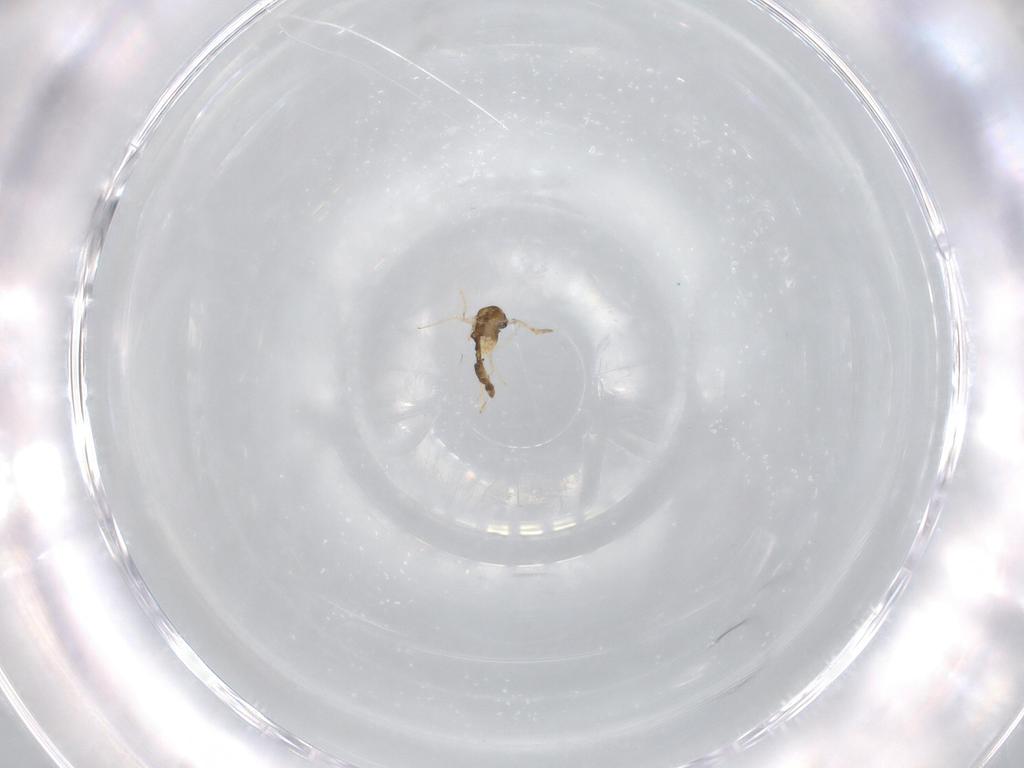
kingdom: Animalia
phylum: Arthropoda
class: Insecta
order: Diptera
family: Chironomidae
